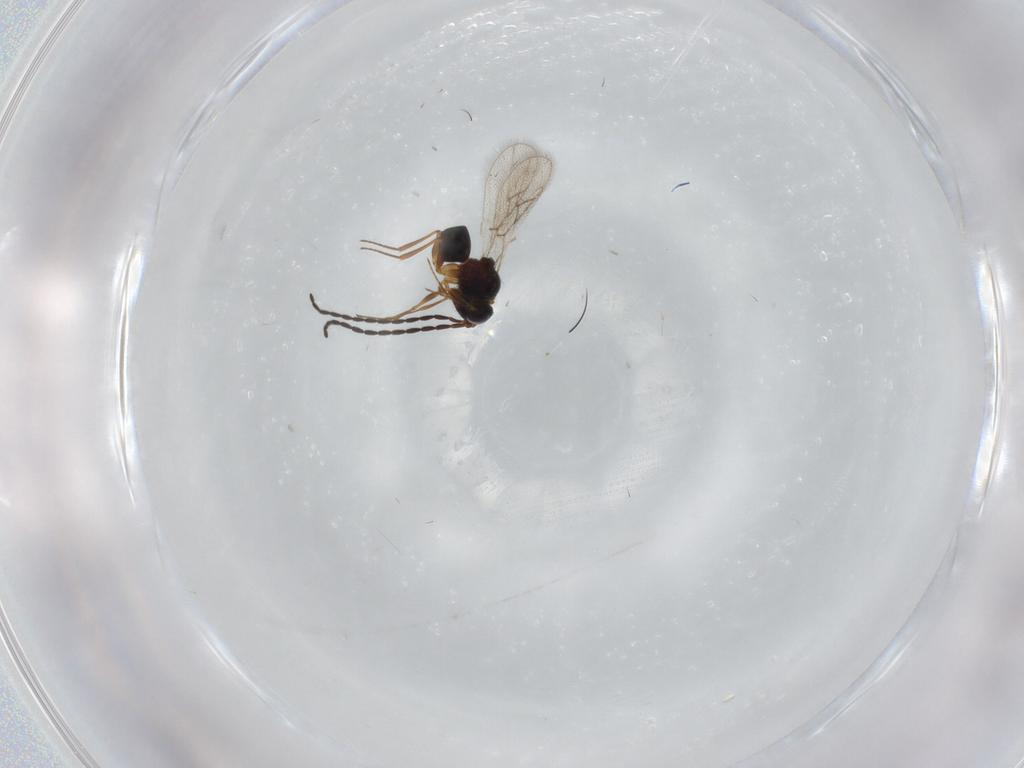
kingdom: Animalia
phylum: Arthropoda
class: Insecta
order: Hymenoptera
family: Figitidae
